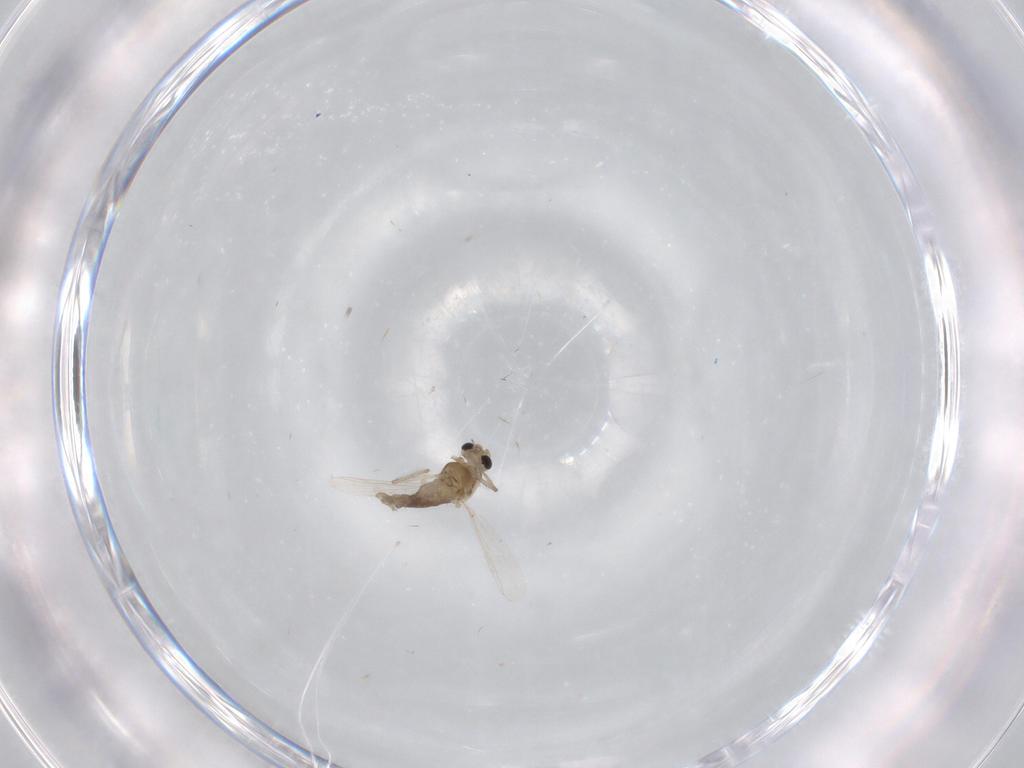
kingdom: Animalia
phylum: Arthropoda
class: Insecta
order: Diptera
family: Chironomidae
